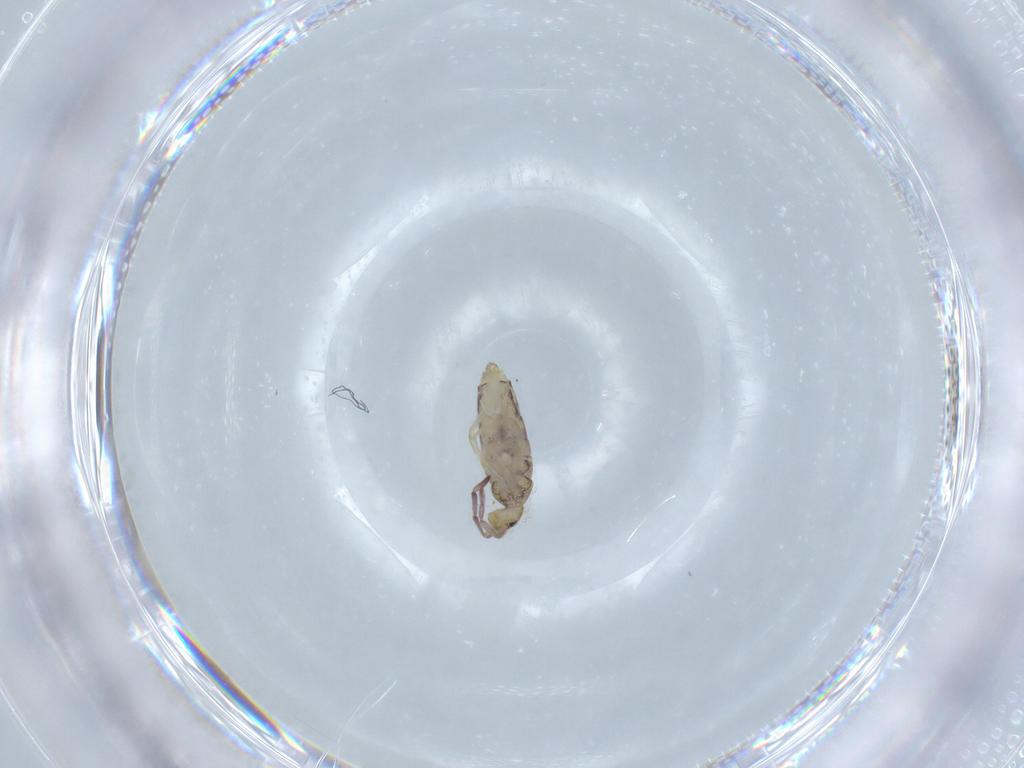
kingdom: Animalia
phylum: Arthropoda
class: Collembola
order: Entomobryomorpha
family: Entomobryidae
